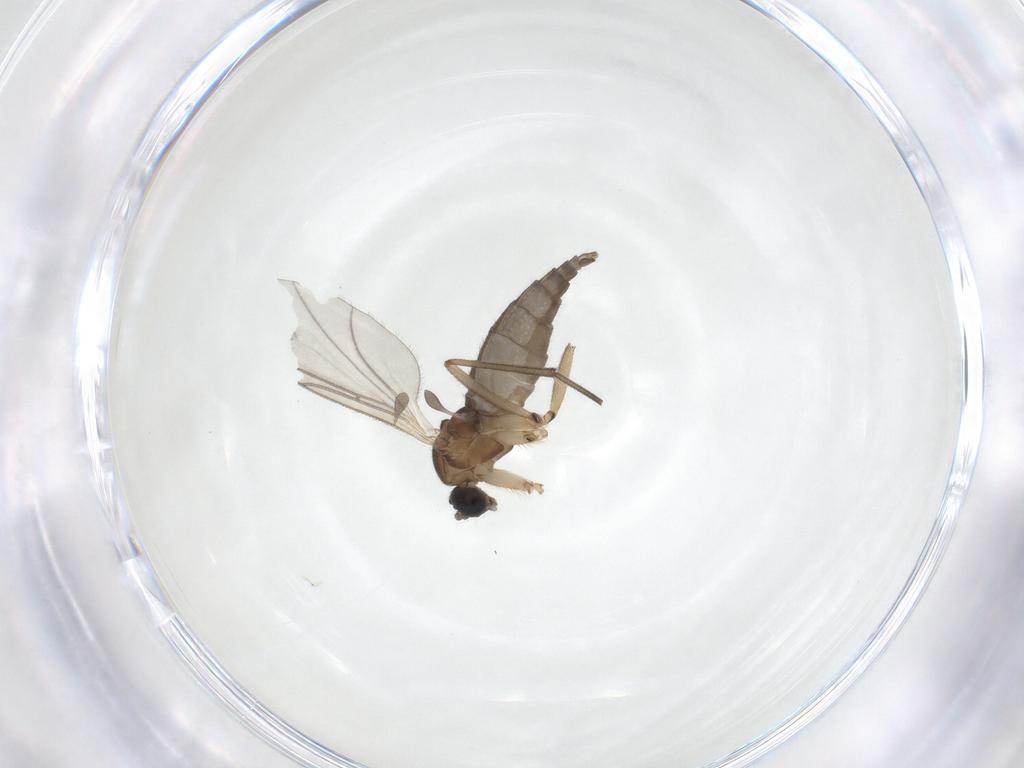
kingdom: Animalia
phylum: Arthropoda
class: Insecta
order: Diptera
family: Sciaridae
